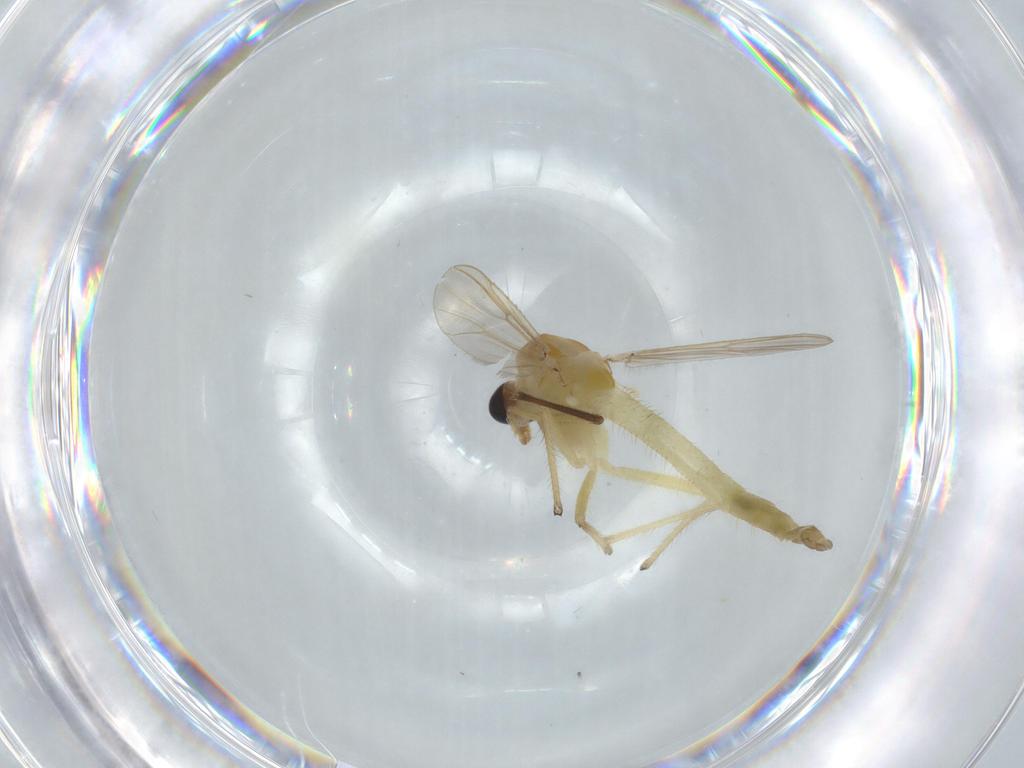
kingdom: Animalia
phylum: Arthropoda
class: Insecta
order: Diptera
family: Chironomidae
